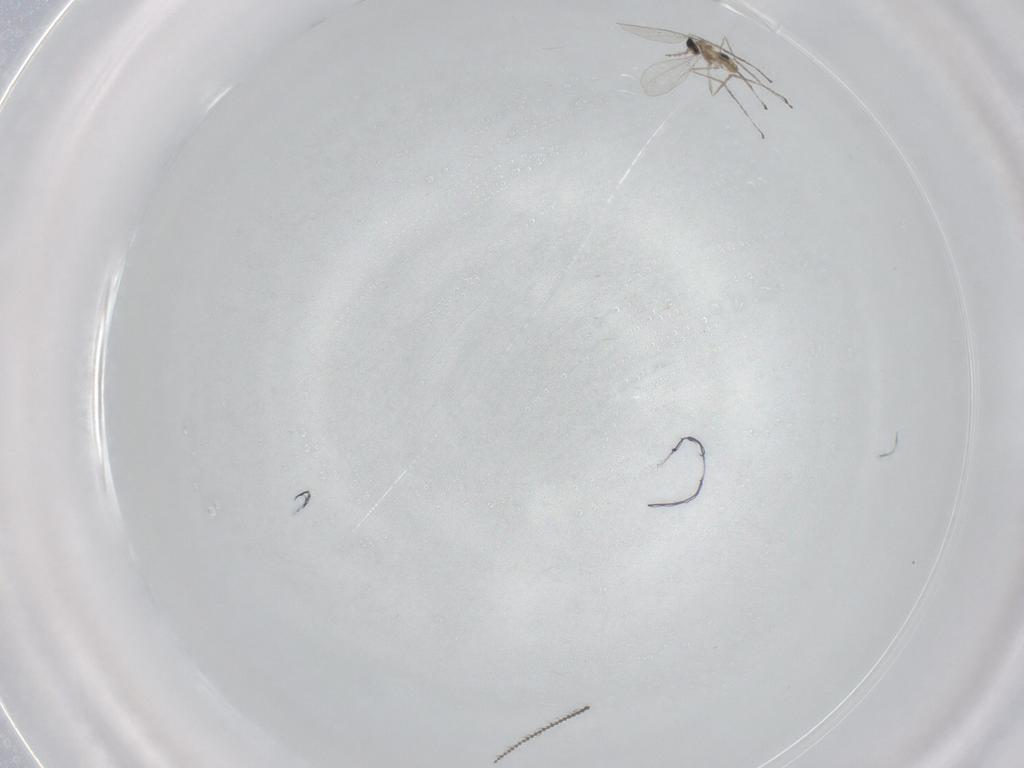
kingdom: Animalia
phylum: Arthropoda
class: Insecta
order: Diptera
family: Cecidomyiidae
